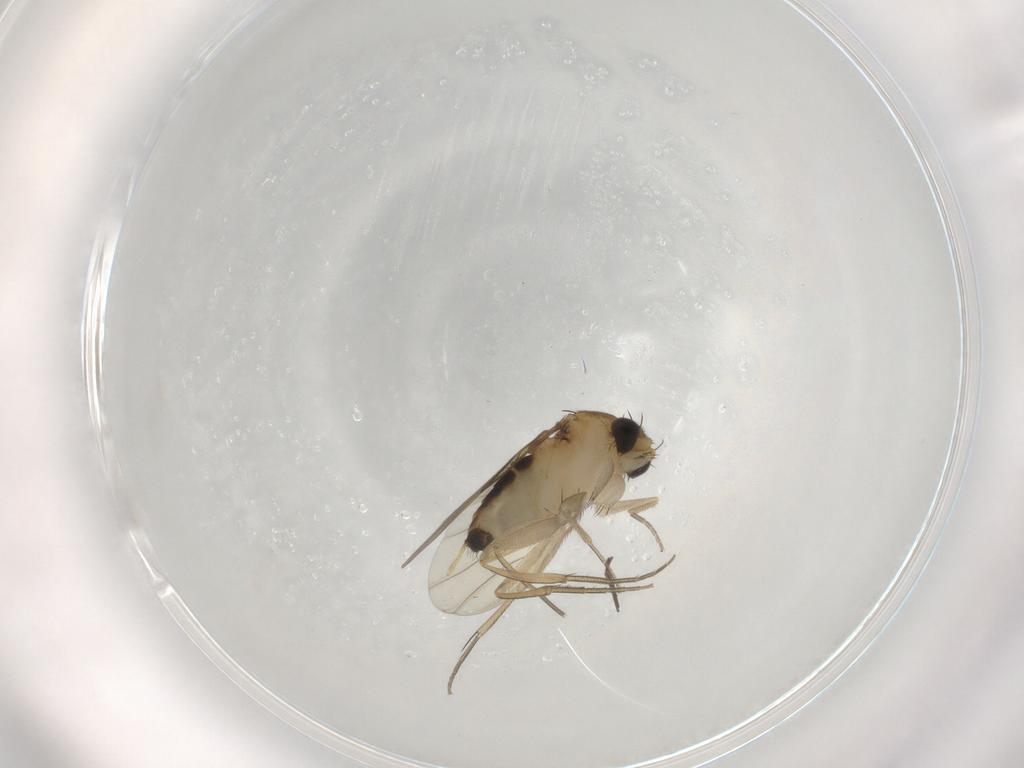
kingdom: Animalia
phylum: Arthropoda
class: Insecta
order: Diptera
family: Phoridae
